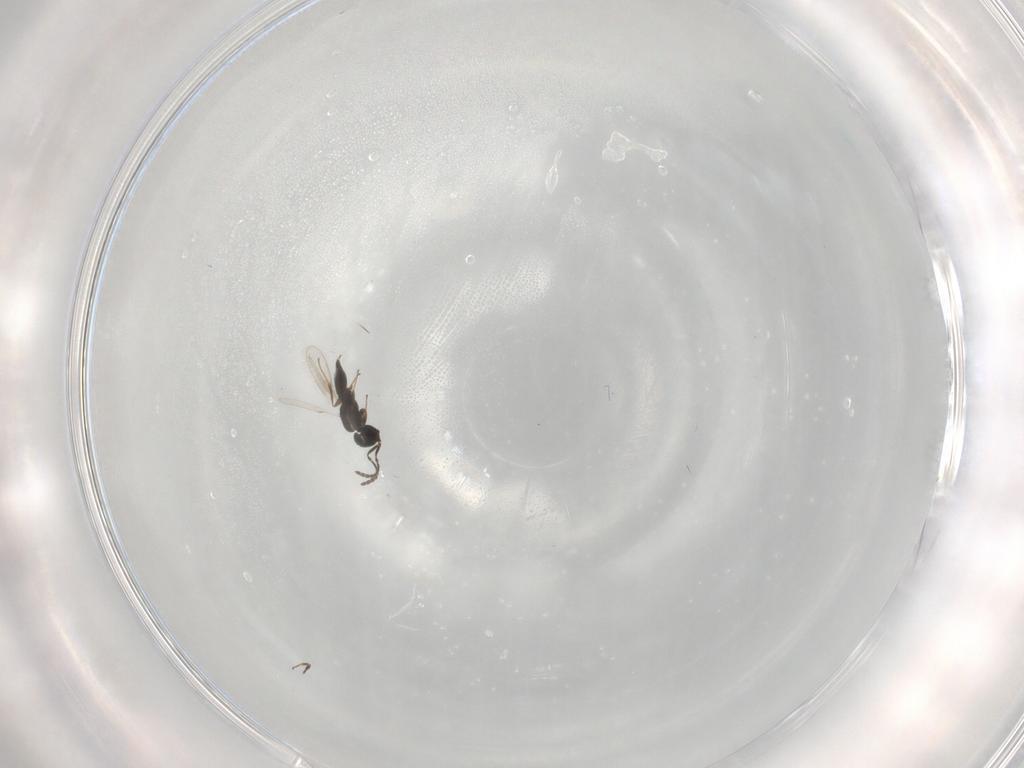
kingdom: Animalia
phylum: Arthropoda
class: Insecta
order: Hymenoptera
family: Scelionidae
